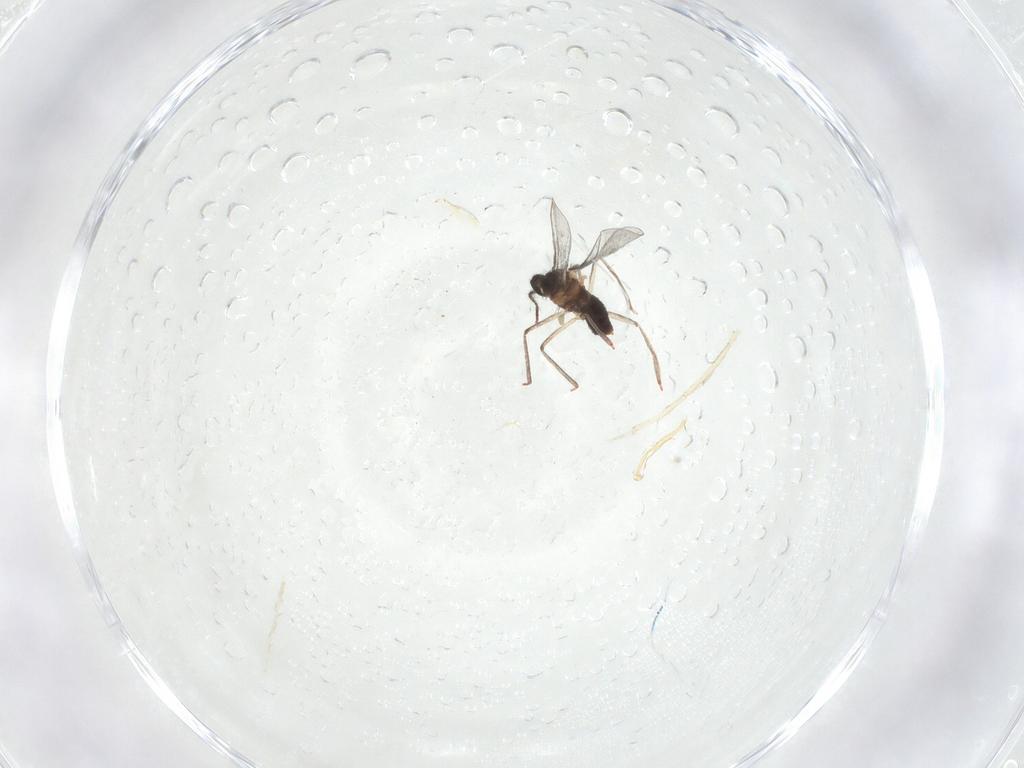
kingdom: Animalia
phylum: Arthropoda
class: Insecta
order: Diptera
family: Cecidomyiidae
